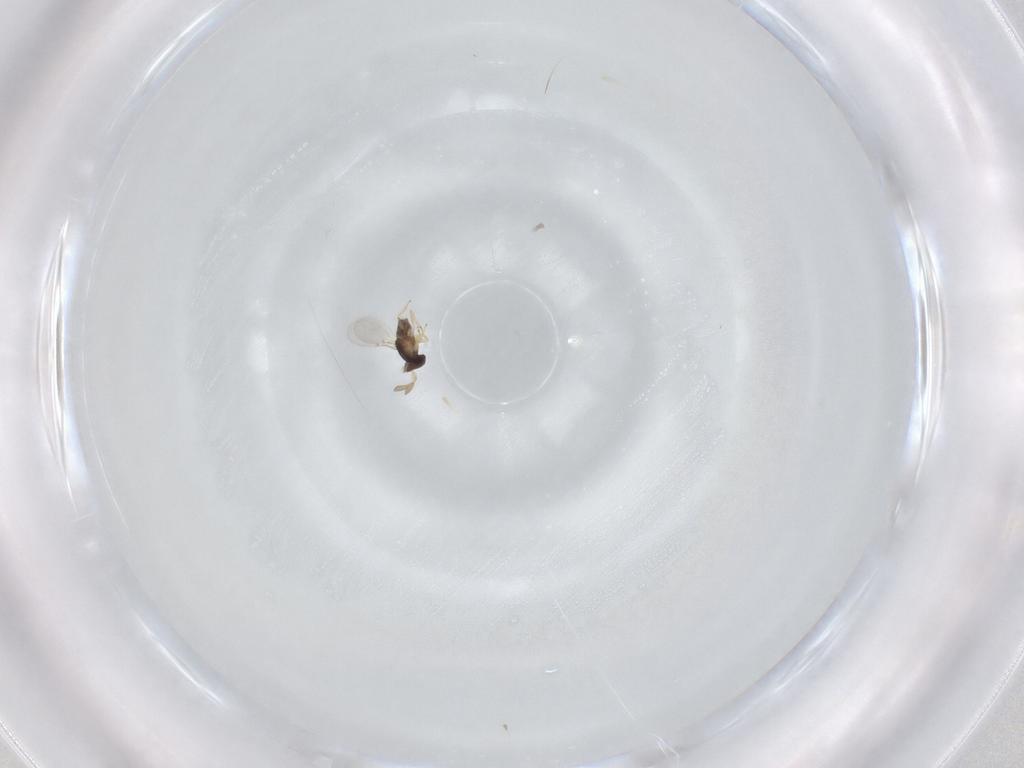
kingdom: Animalia
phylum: Arthropoda
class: Insecta
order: Hymenoptera
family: Encyrtidae
